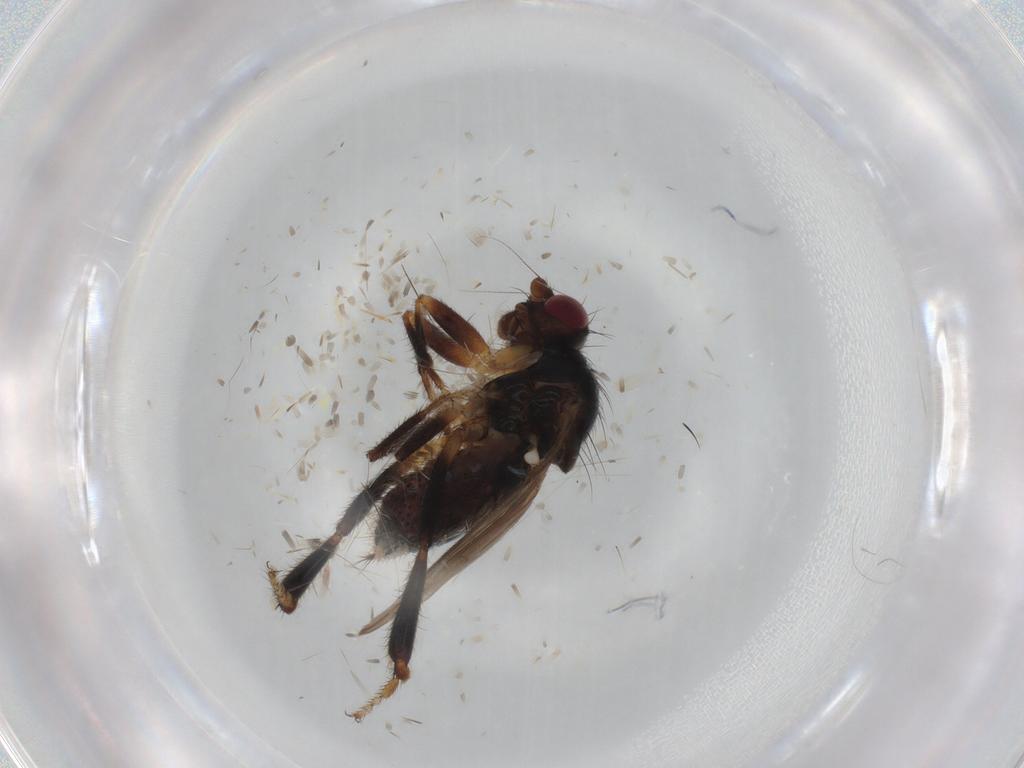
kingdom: Animalia
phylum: Arthropoda
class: Insecta
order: Diptera
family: Sphaeroceridae
